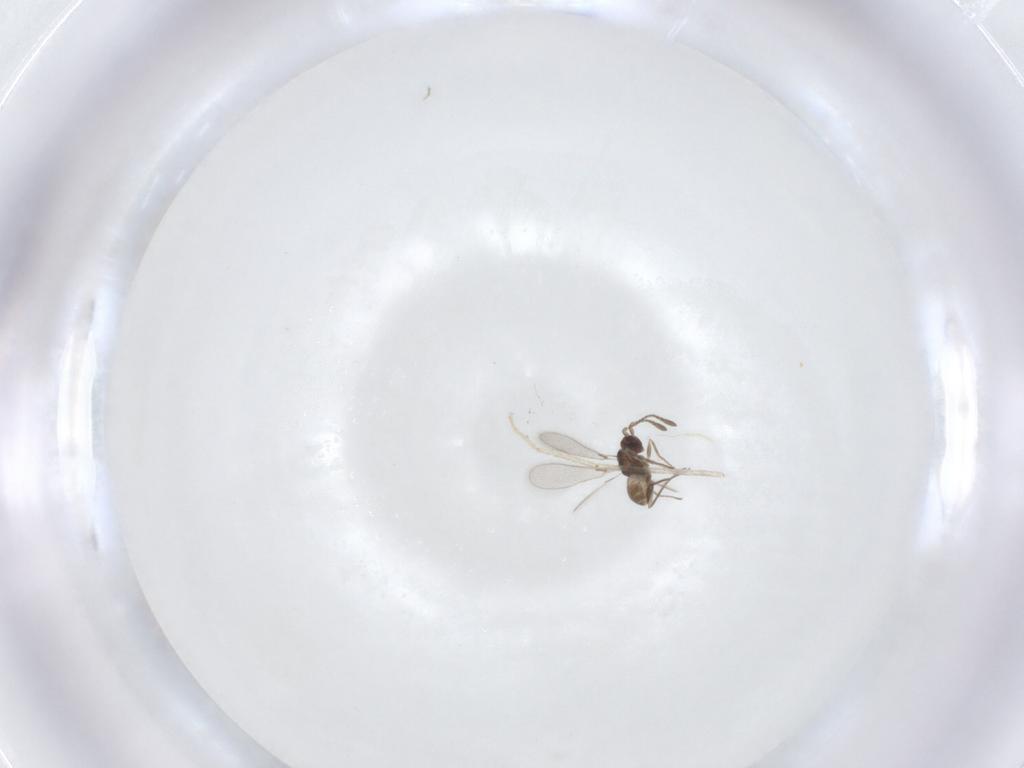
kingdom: Animalia
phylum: Arthropoda
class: Insecta
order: Hymenoptera
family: Mymaridae
